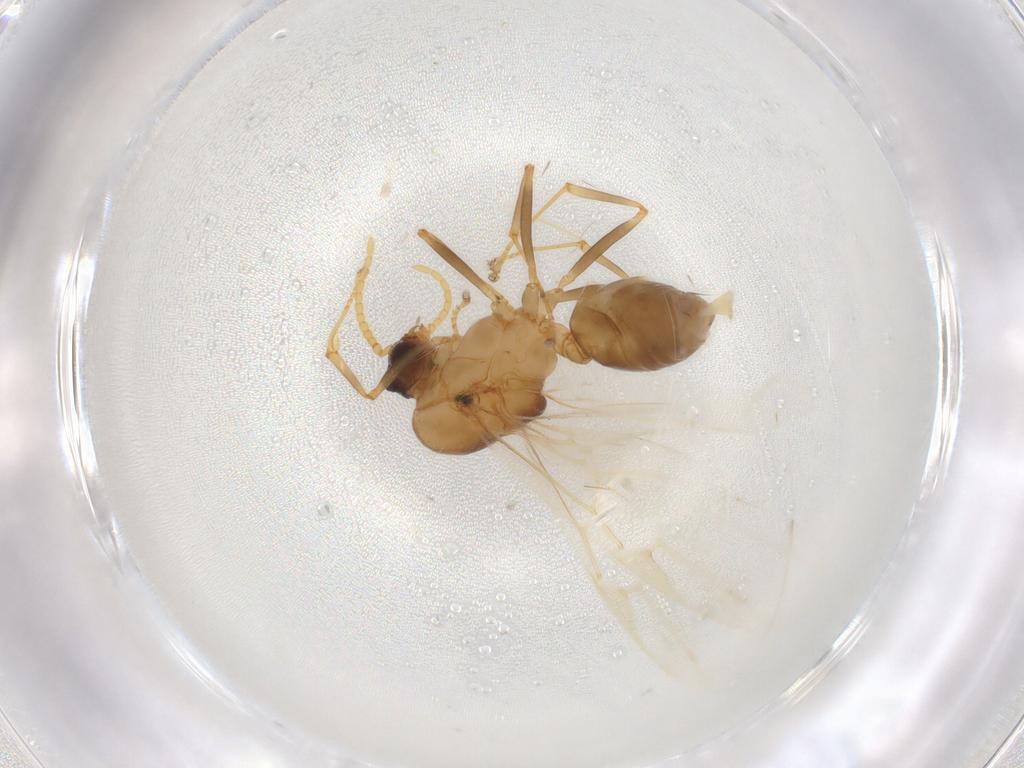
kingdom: Animalia
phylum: Arthropoda
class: Insecta
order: Hymenoptera
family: Formicidae
